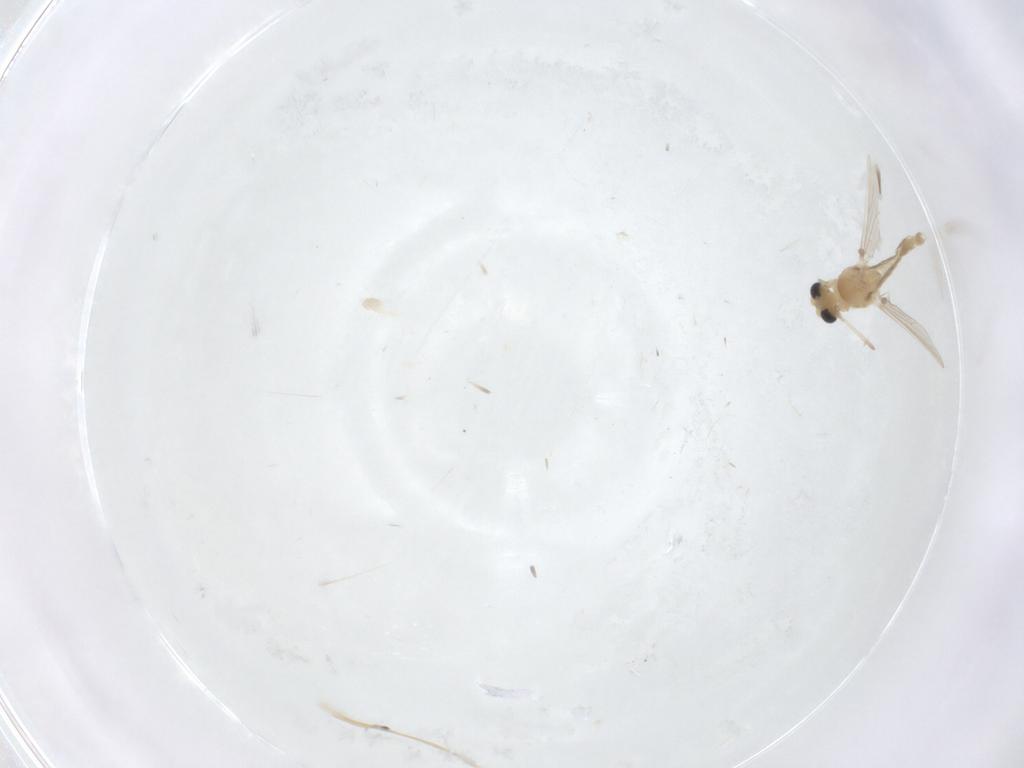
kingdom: Animalia
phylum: Arthropoda
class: Insecta
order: Diptera
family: Chironomidae
